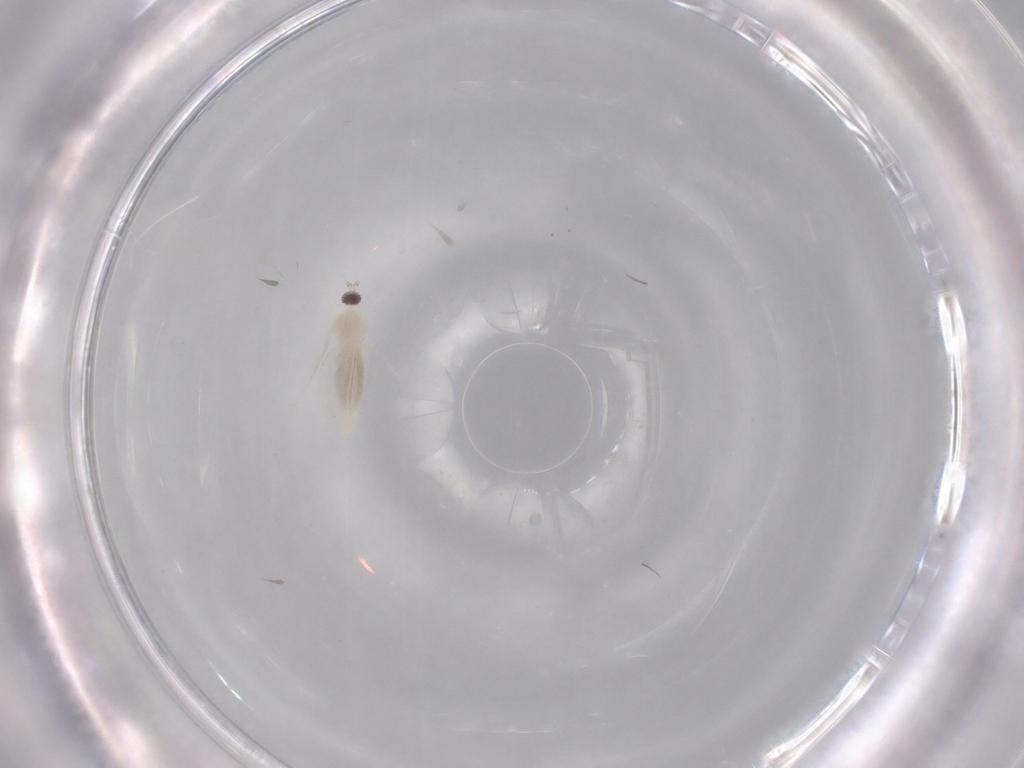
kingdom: Animalia
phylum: Arthropoda
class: Insecta
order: Diptera
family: Cecidomyiidae
